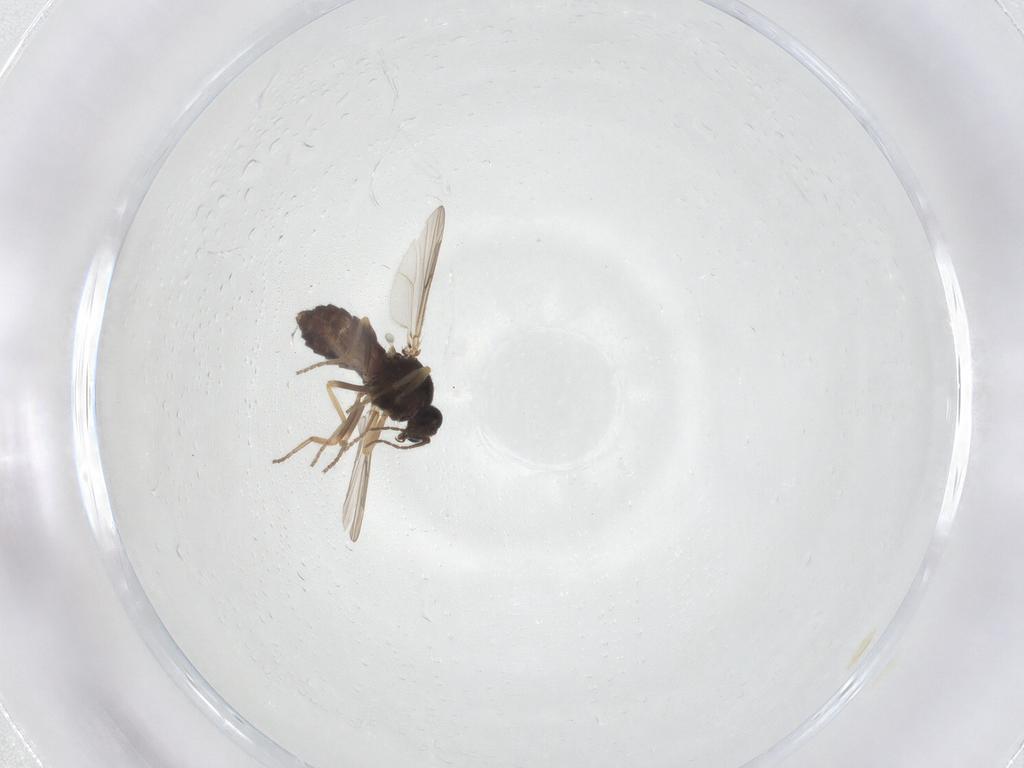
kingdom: Animalia
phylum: Arthropoda
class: Insecta
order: Diptera
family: Ceratopogonidae
